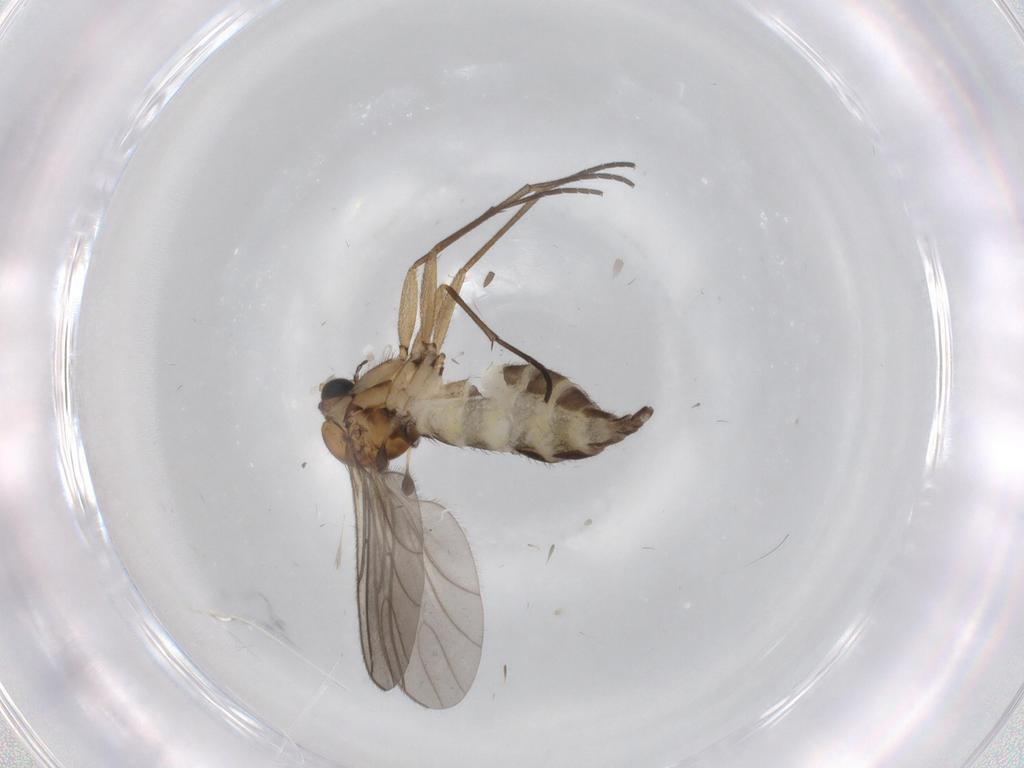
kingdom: Animalia
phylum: Arthropoda
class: Insecta
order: Diptera
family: Sciaridae
